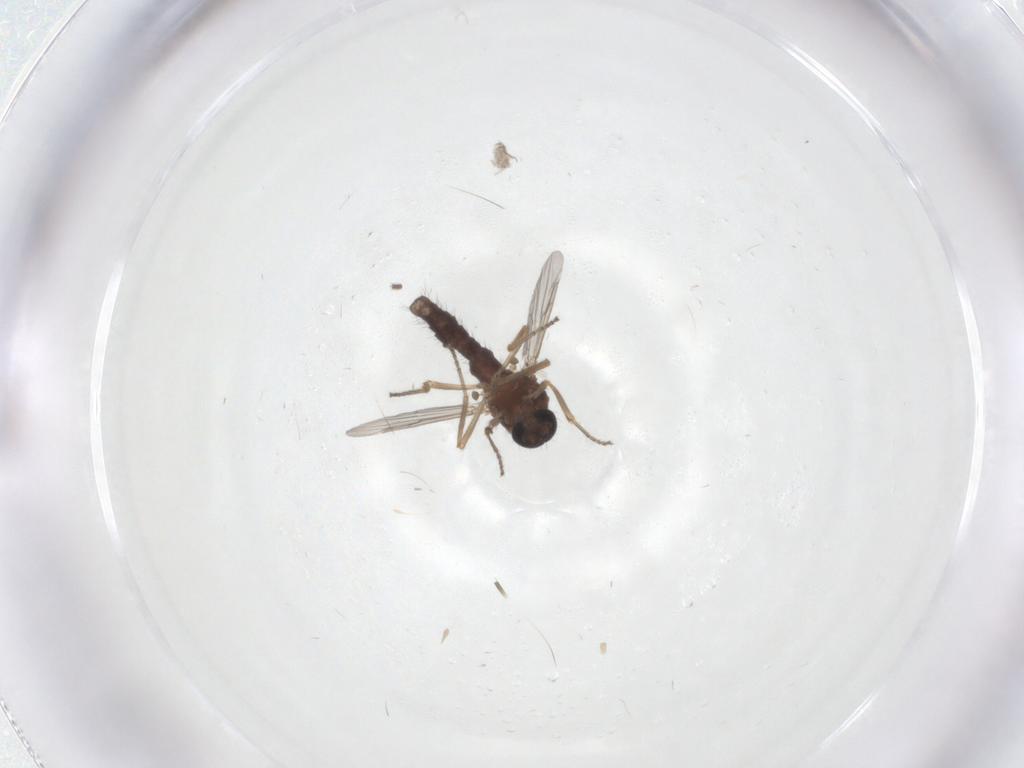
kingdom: Animalia
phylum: Arthropoda
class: Insecta
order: Diptera
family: Ceratopogonidae
